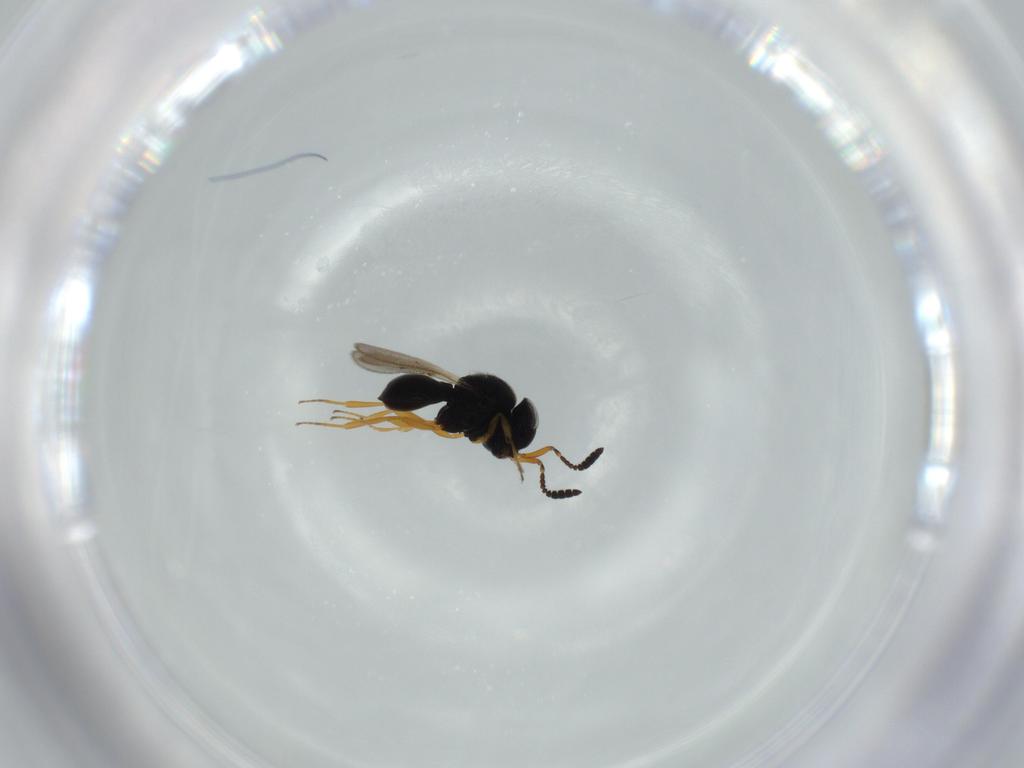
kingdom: Animalia
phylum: Arthropoda
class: Insecta
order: Hymenoptera
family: Scelionidae
